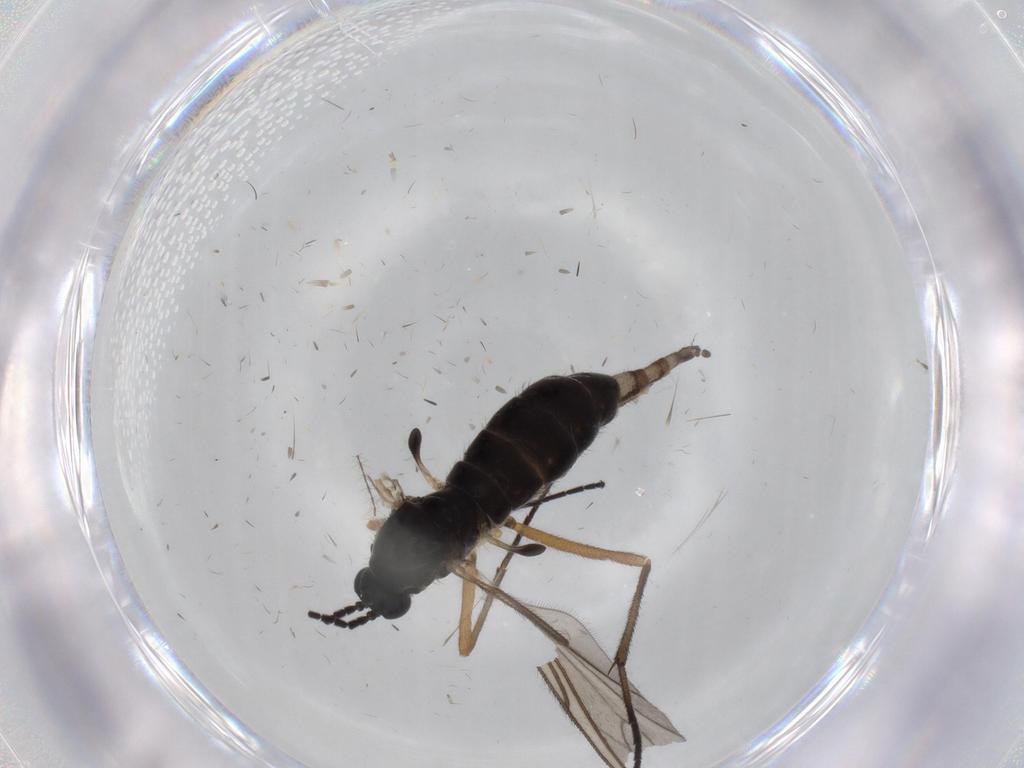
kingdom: Animalia
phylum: Arthropoda
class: Insecta
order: Diptera
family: Sciaridae
